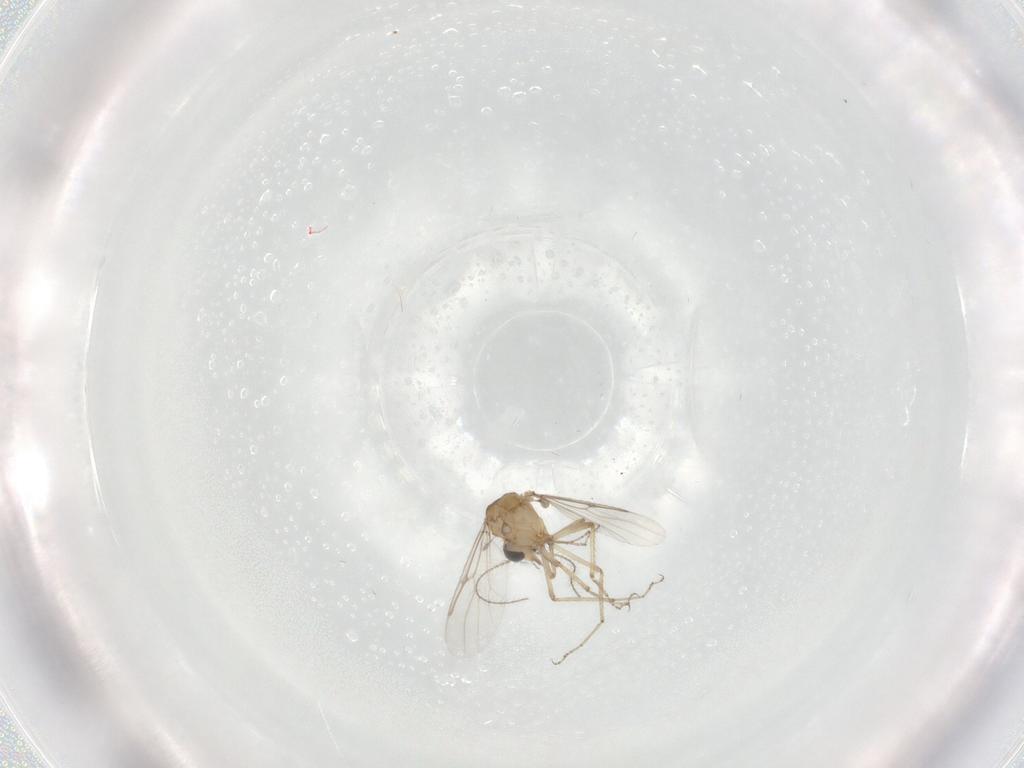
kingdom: Animalia
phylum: Arthropoda
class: Insecta
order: Diptera
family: Ceratopogonidae
